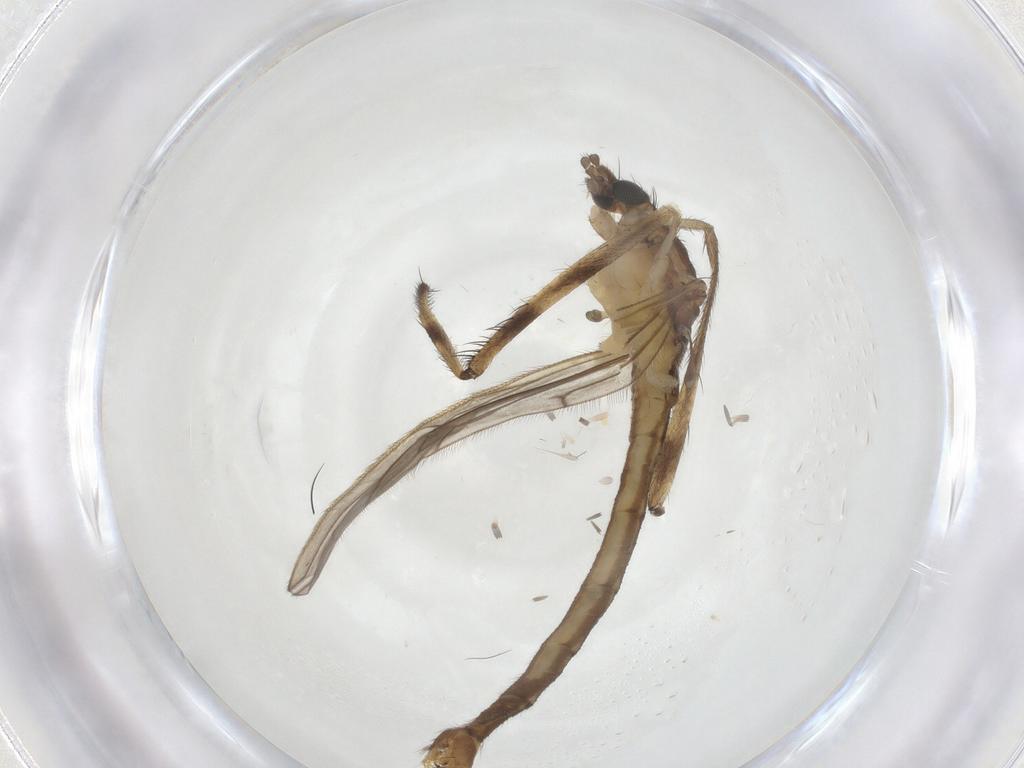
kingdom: Animalia
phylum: Arthropoda
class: Insecta
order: Diptera
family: Limoniidae
